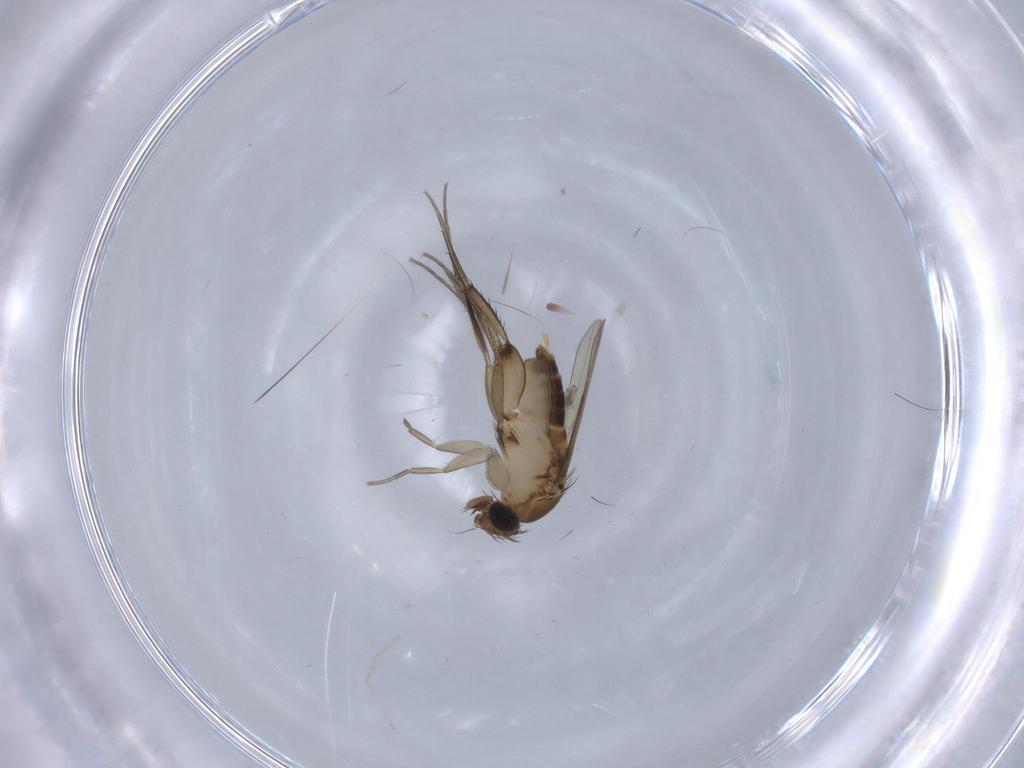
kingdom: Animalia
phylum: Arthropoda
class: Insecta
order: Diptera
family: Phoridae
